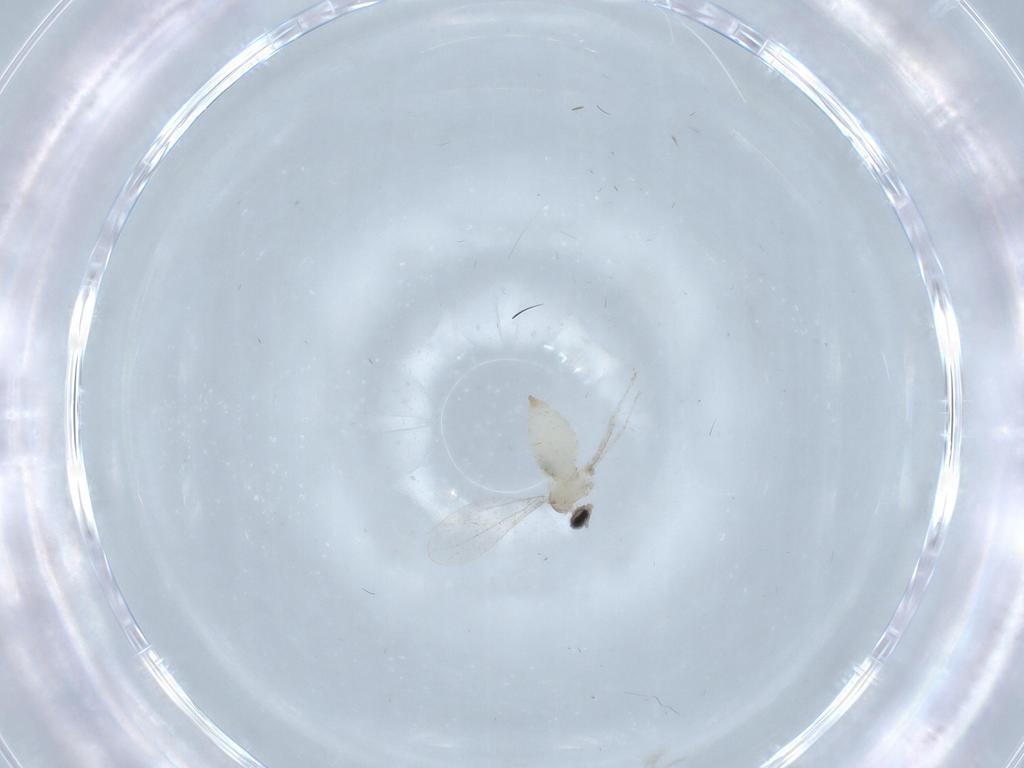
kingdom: Animalia
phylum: Arthropoda
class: Insecta
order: Diptera
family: Cecidomyiidae
